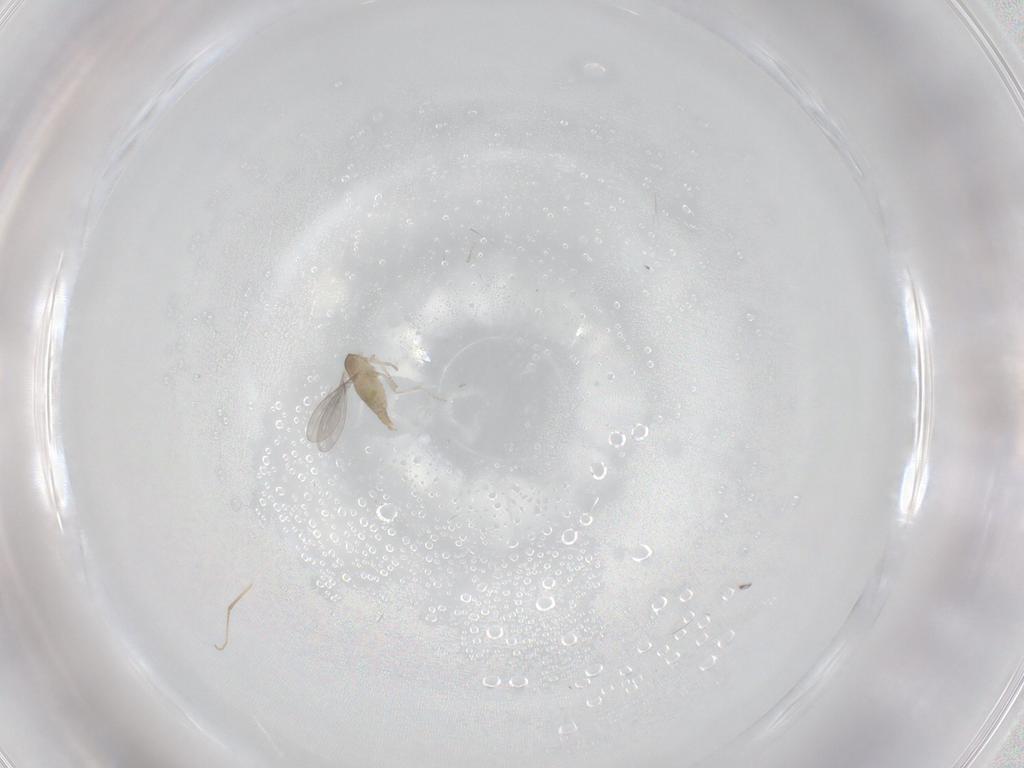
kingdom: Animalia
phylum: Arthropoda
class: Insecta
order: Diptera
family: Cecidomyiidae
